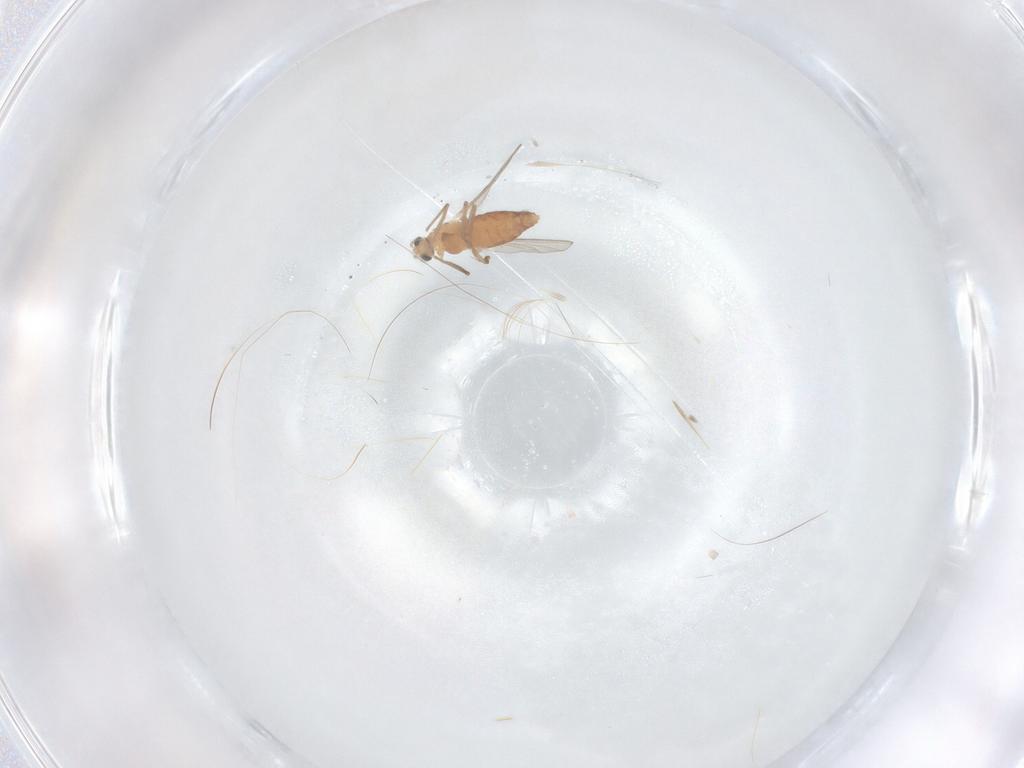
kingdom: Animalia
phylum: Arthropoda
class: Insecta
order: Diptera
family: Chironomidae
